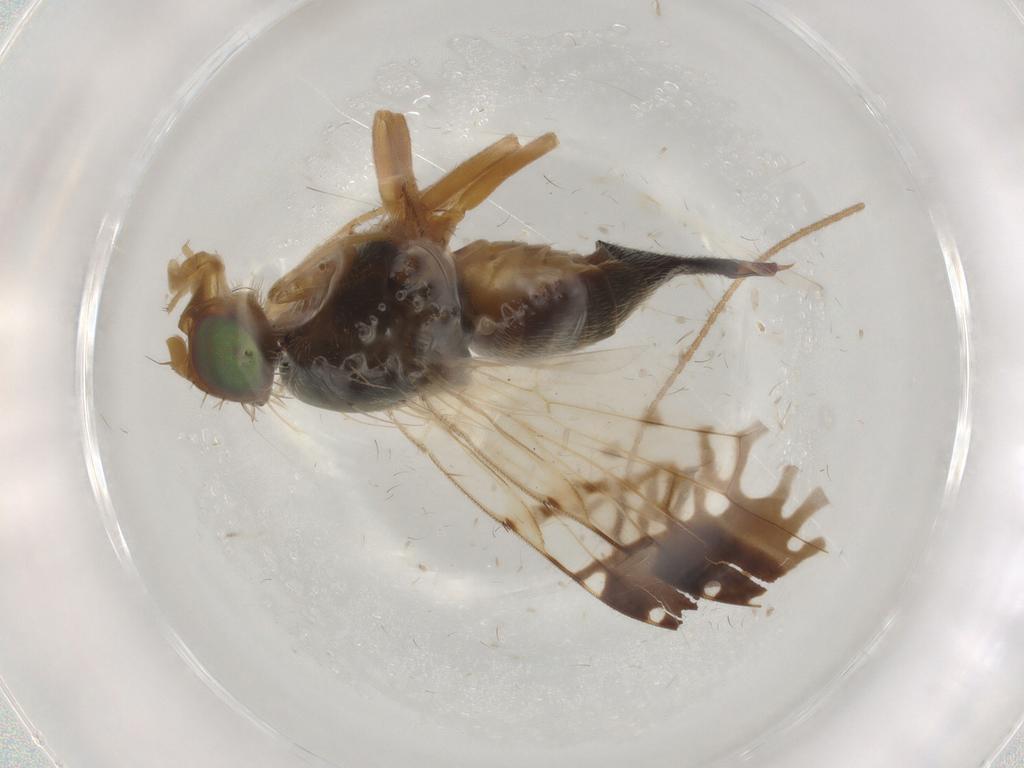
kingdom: Animalia
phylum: Arthropoda
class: Insecta
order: Diptera
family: Tephritidae
